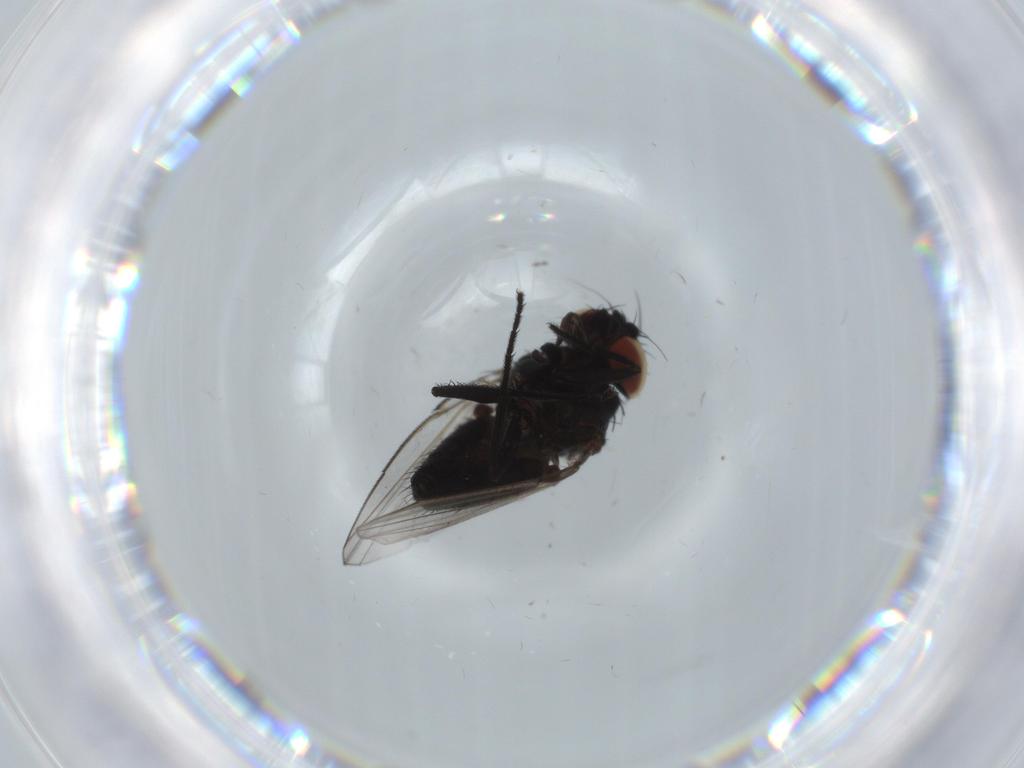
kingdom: Animalia
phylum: Arthropoda
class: Insecta
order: Diptera
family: Milichiidae
